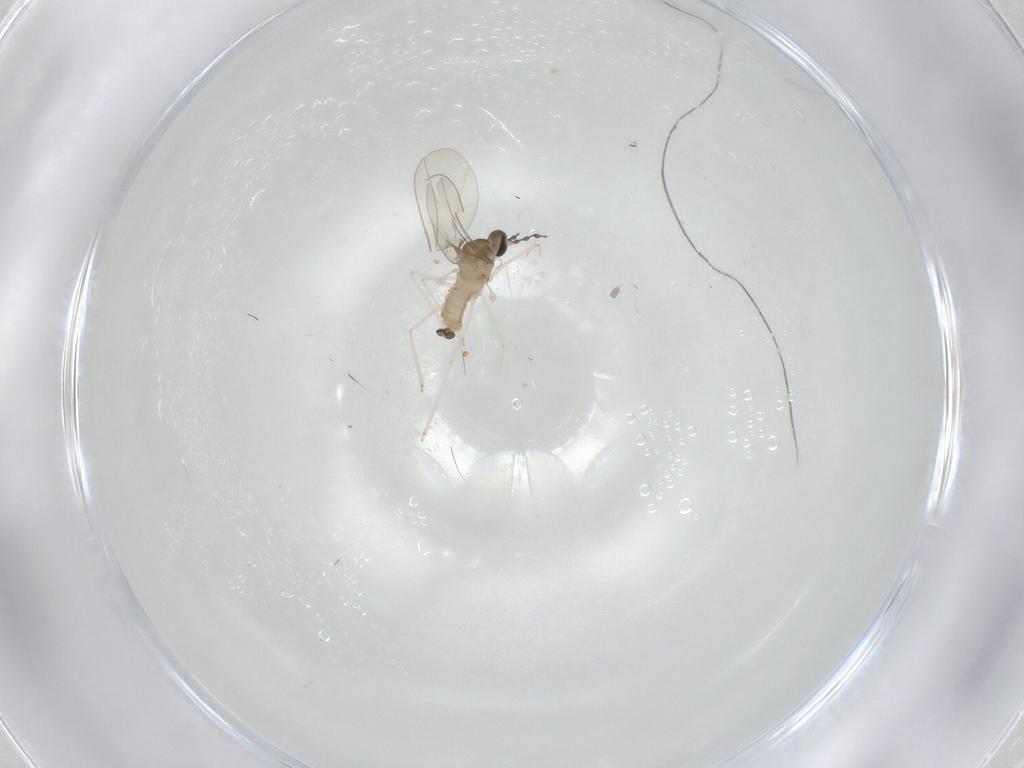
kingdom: Animalia
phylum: Arthropoda
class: Insecta
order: Diptera
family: Cecidomyiidae
